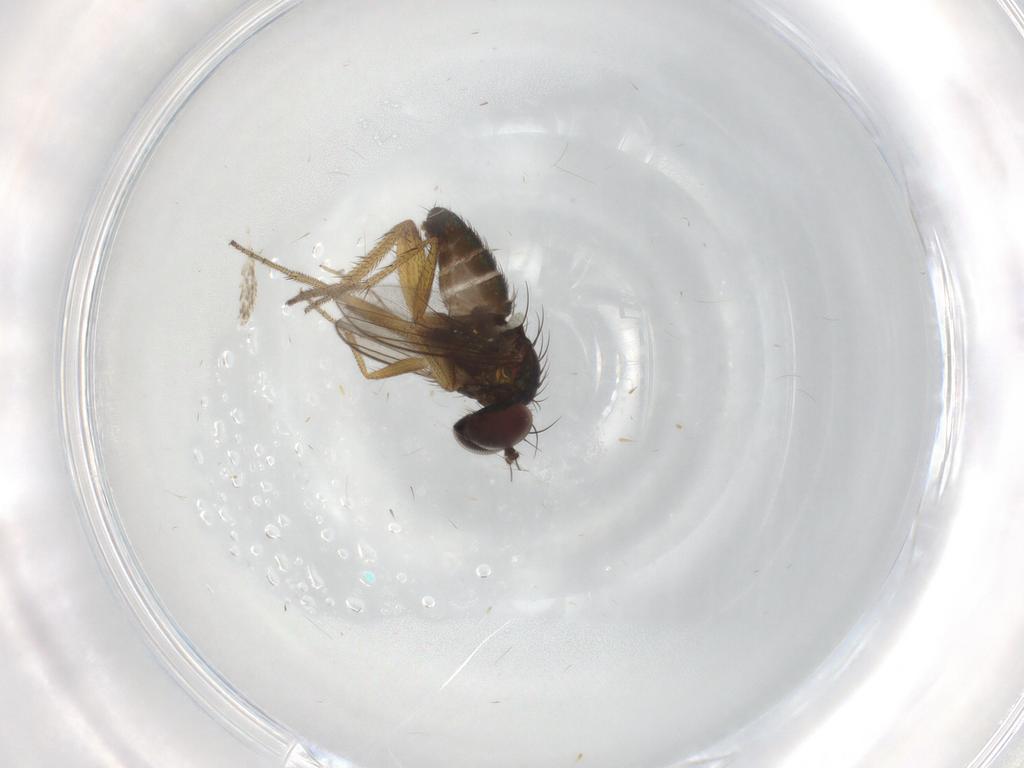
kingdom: Animalia
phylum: Arthropoda
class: Insecta
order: Diptera
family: Dolichopodidae
